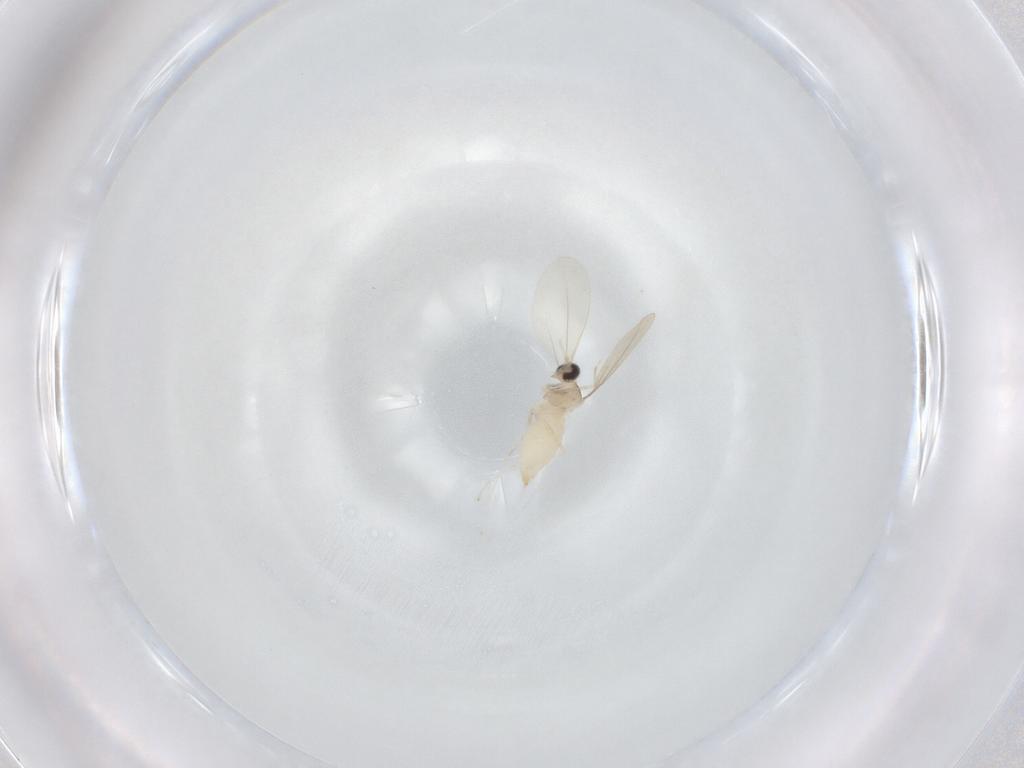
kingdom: Animalia
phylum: Arthropoda
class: Insecta
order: Diptera
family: Cecidomyiidae
